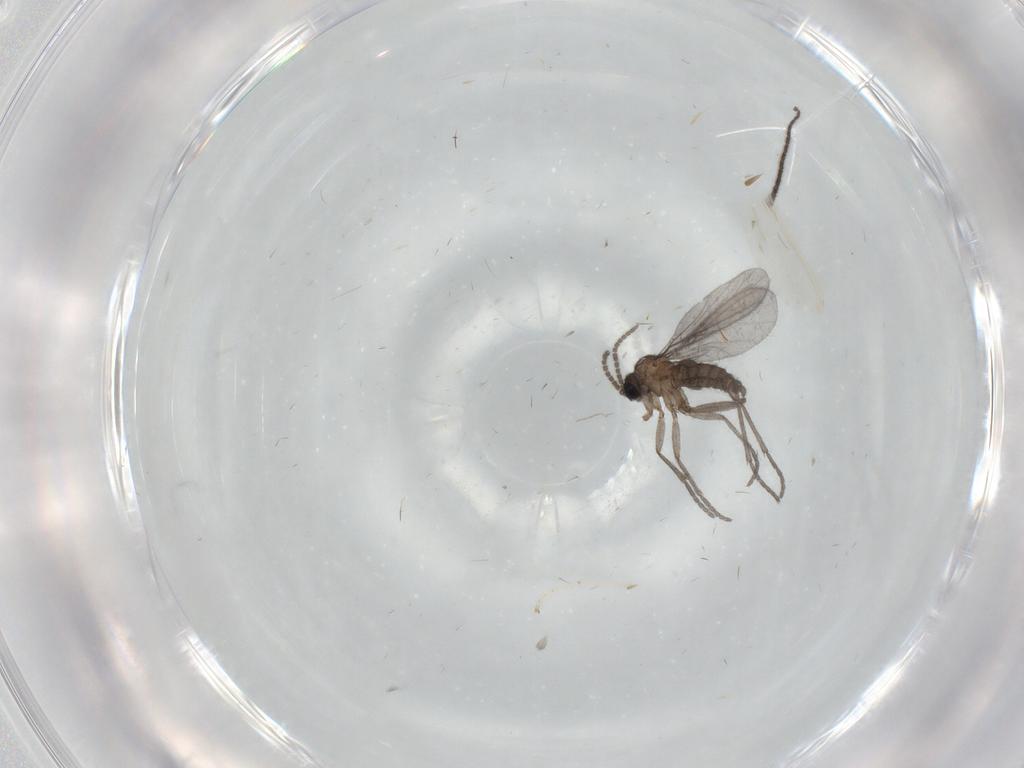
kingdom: Animalia
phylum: Arthropoda
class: Insecta
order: Diptera
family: Sciaridae
